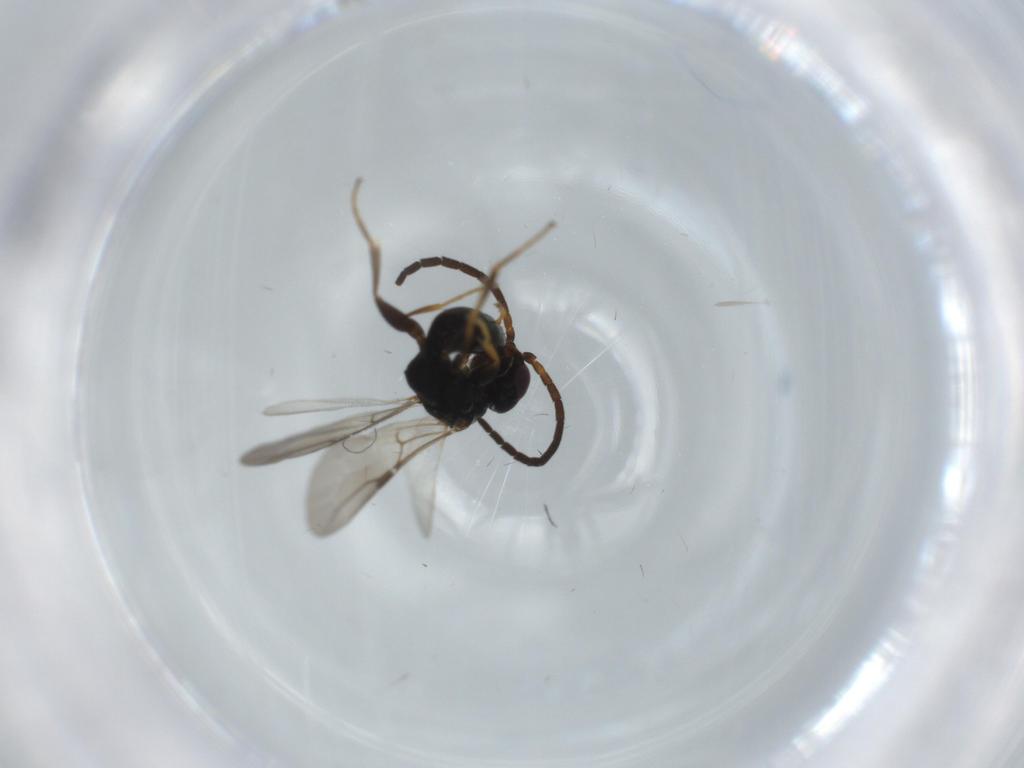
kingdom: Animalia
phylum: Arthropoda
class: Insecta
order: Hymenoptera
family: Bethylidae
